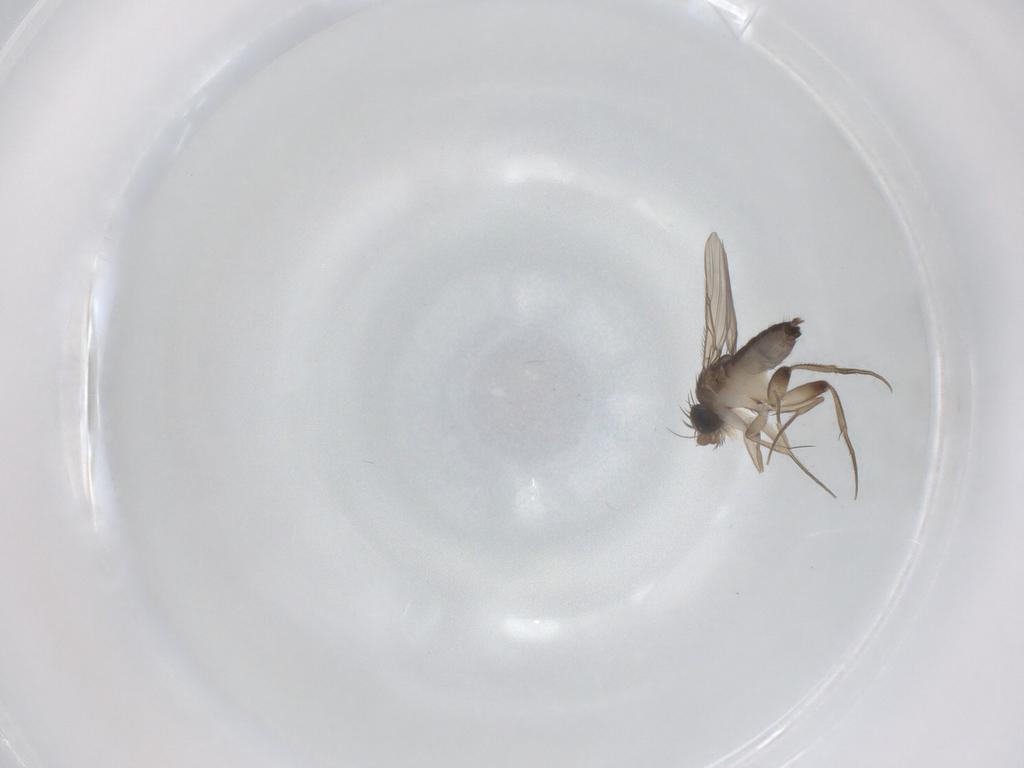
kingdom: Animalia
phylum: Arthropoda
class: Insecta
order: Diptera
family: Phoridae
